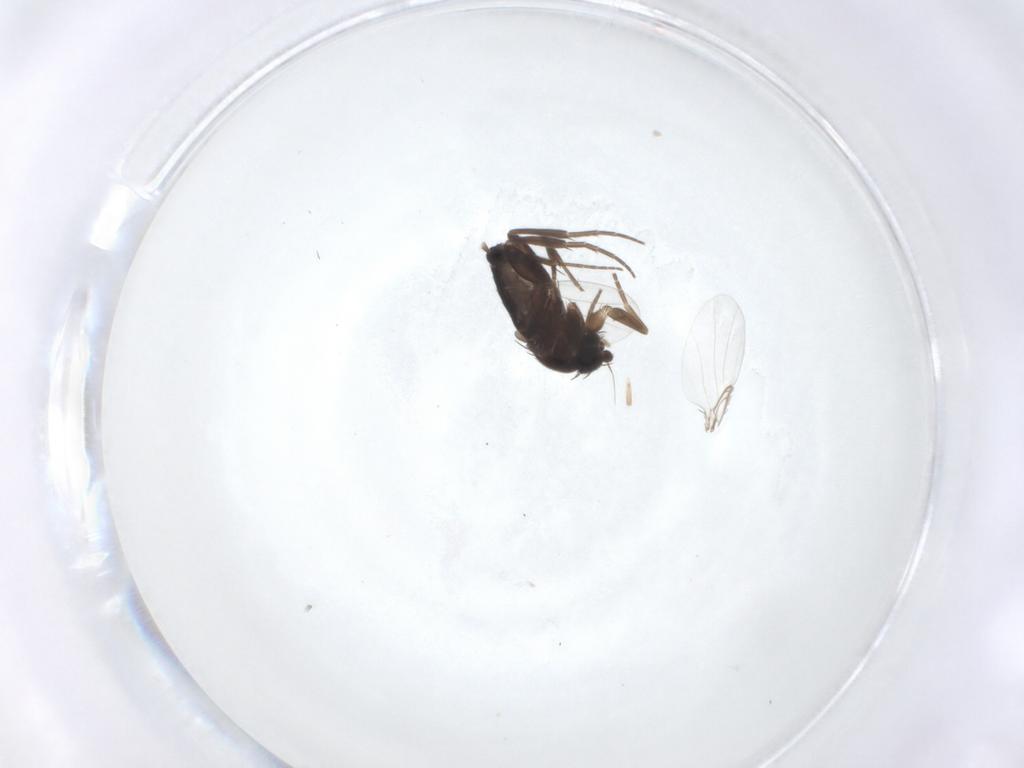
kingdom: Animalia
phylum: Arthropoda
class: Insecta
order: Diptera
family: Phoridae
